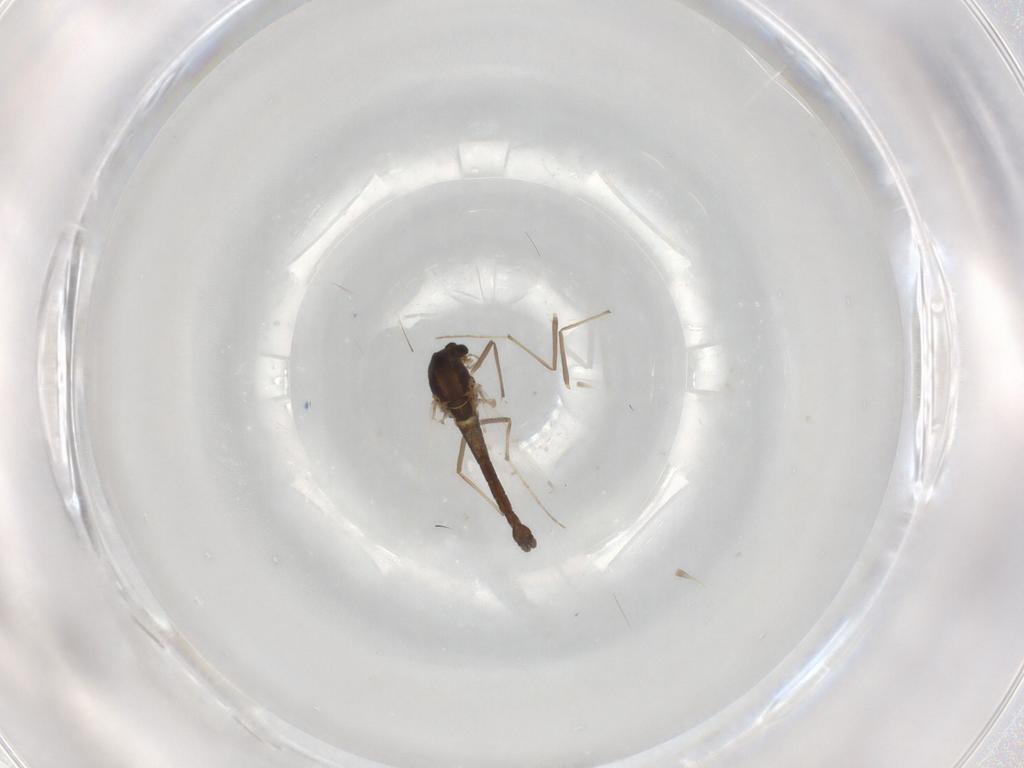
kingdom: Animalia
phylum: Arthropoda
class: Insecta
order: Diptera
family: Chironomidae
